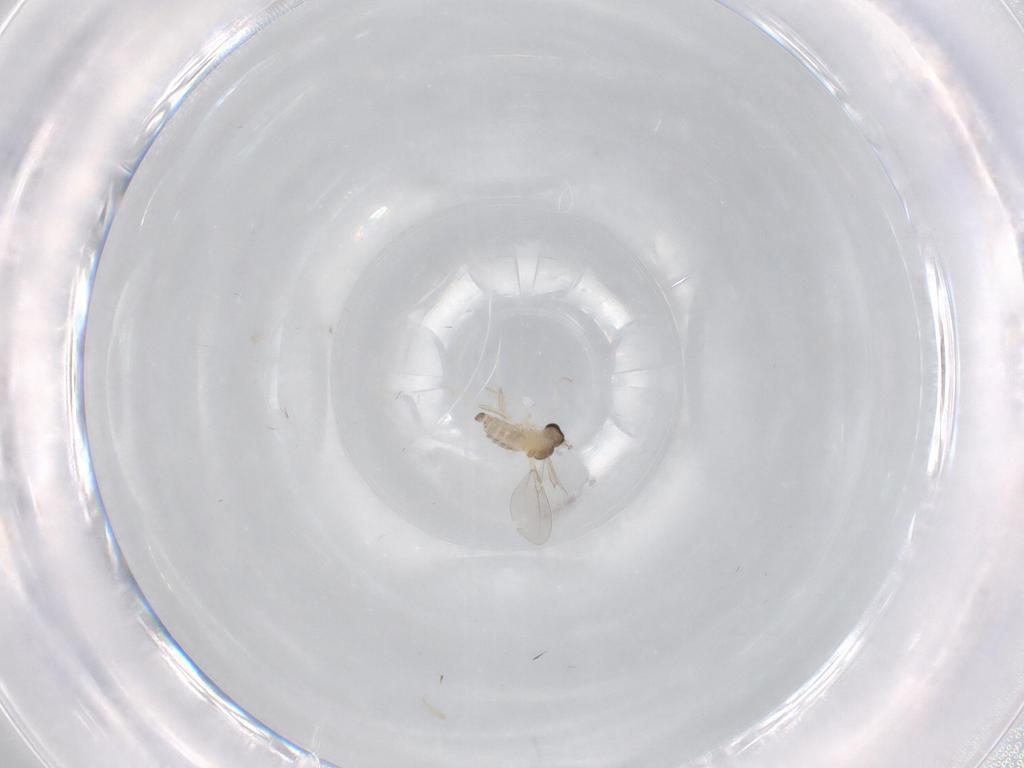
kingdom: Animalia
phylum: Arthropoda
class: Insecta
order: Diptera
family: Cecidomyiidae
